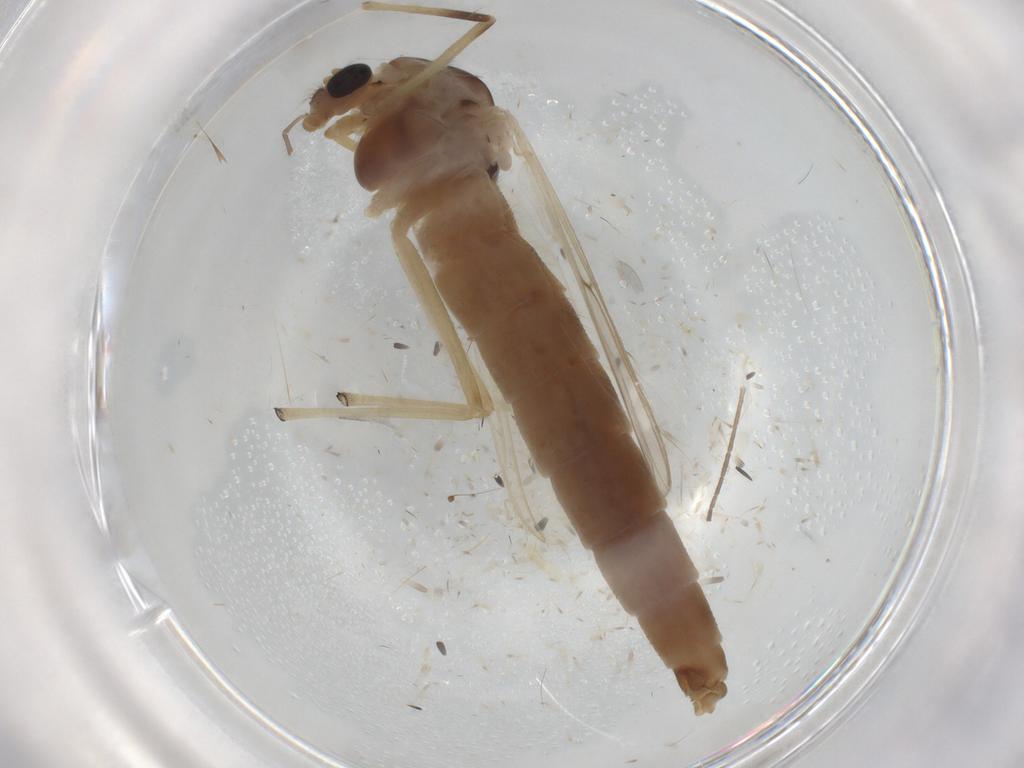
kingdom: Animalia
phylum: Arthropoda
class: Insecta
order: Diptera
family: Chironomidae
